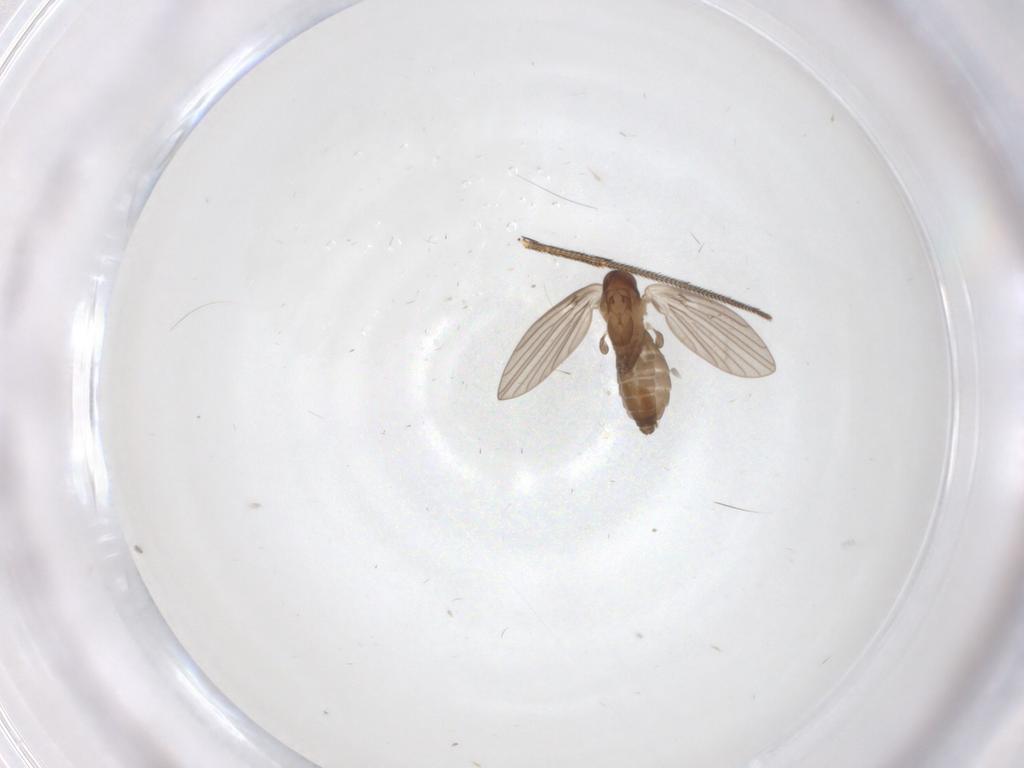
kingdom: Animalia
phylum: Arthropoda
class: Insecta
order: Diptera
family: Psychodidae
